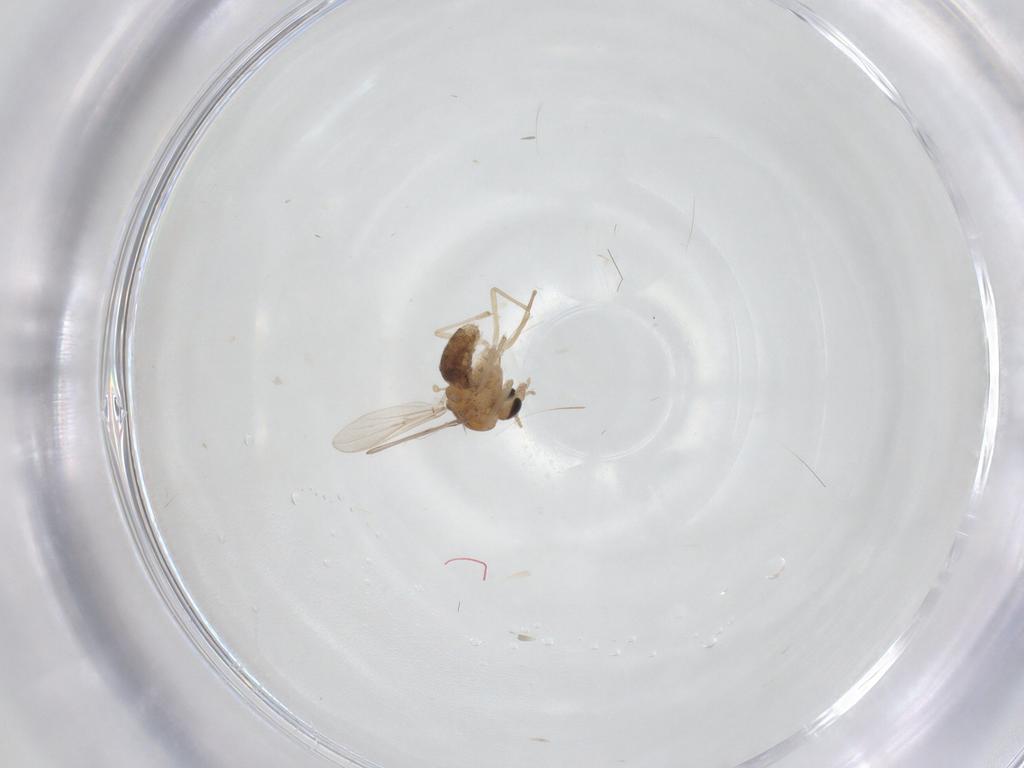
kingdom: Animalia
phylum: Arthropoda
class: Insecta
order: Diptera
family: Chironomidae
